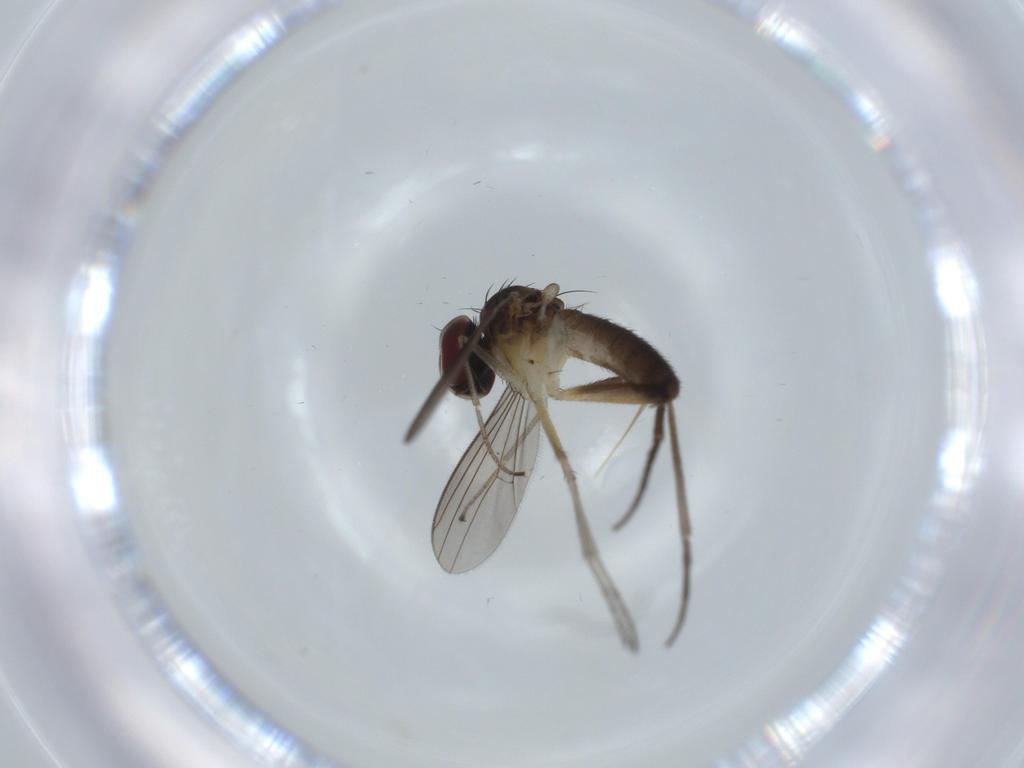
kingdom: Animalia
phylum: Arthropoda
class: Insecta
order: Diptera
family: Dolichopodidae
